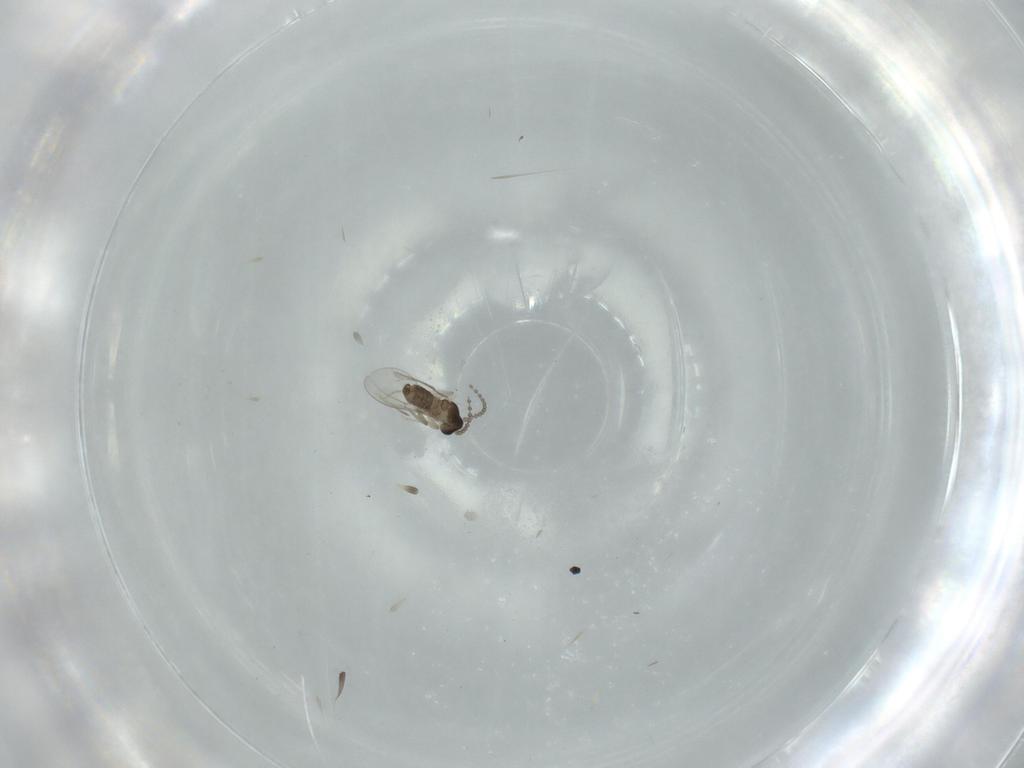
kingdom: Animalia
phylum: Arthropoda
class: Insecta
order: Diptera
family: Cecidomyiidae
